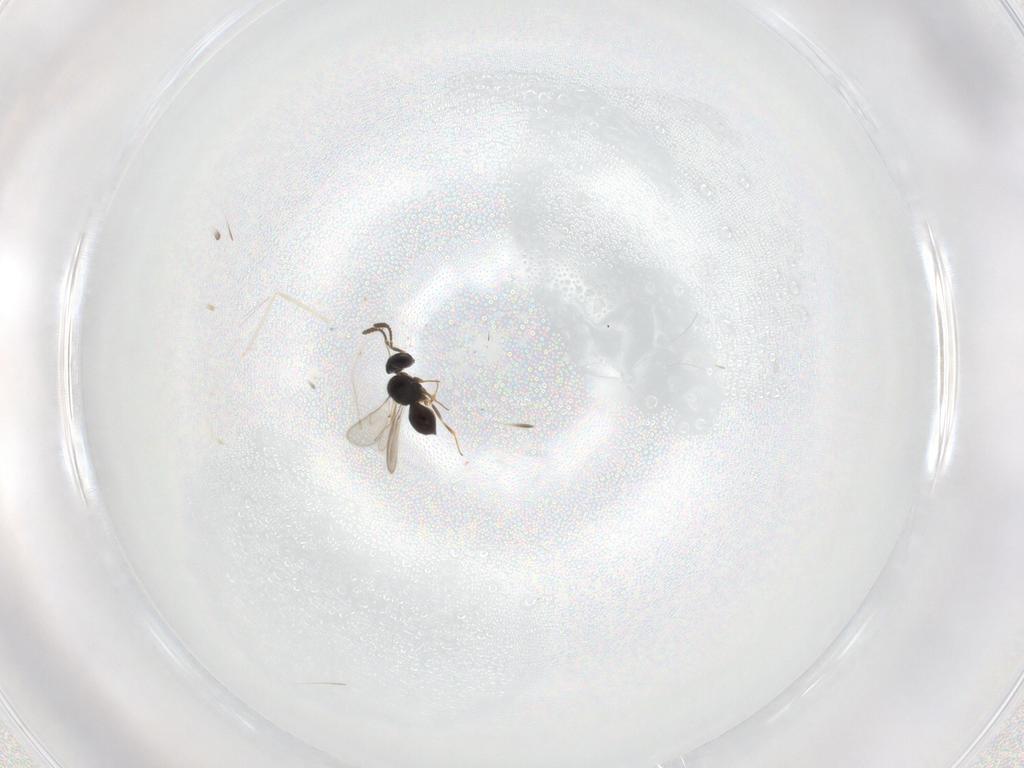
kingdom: Animalia
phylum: Arthropoda
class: Insecta
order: Hymenoptera
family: Scelionidae
